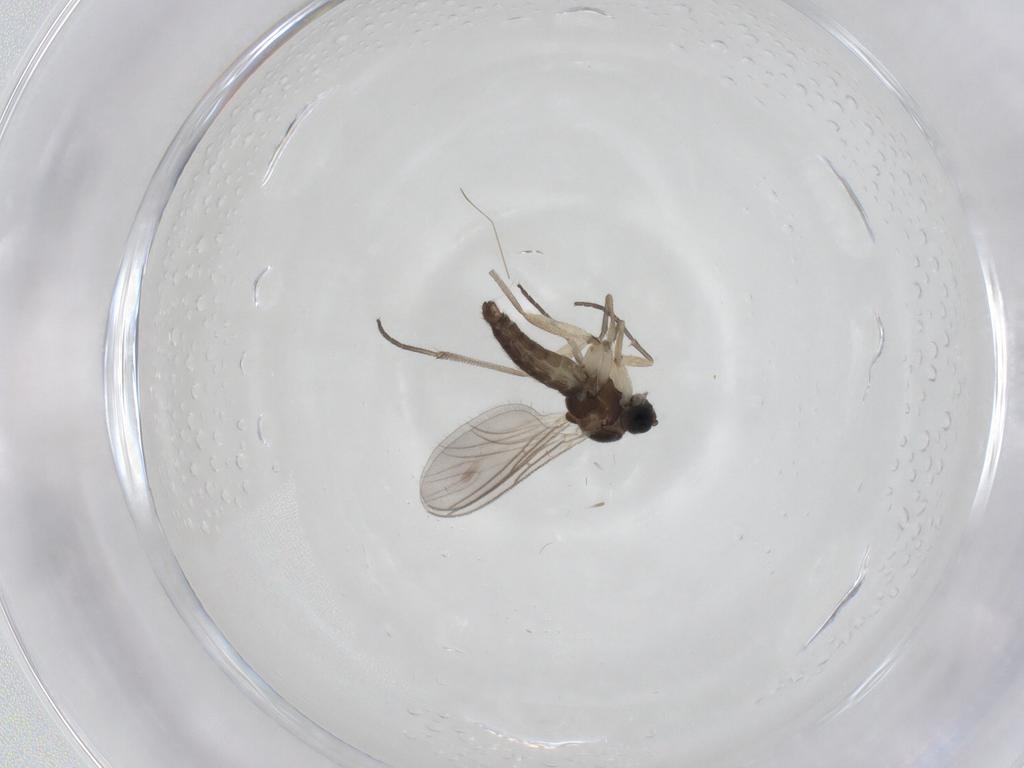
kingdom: Animalia
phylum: Arthropoda
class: Insecta
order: Diptera
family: Sciaridae
